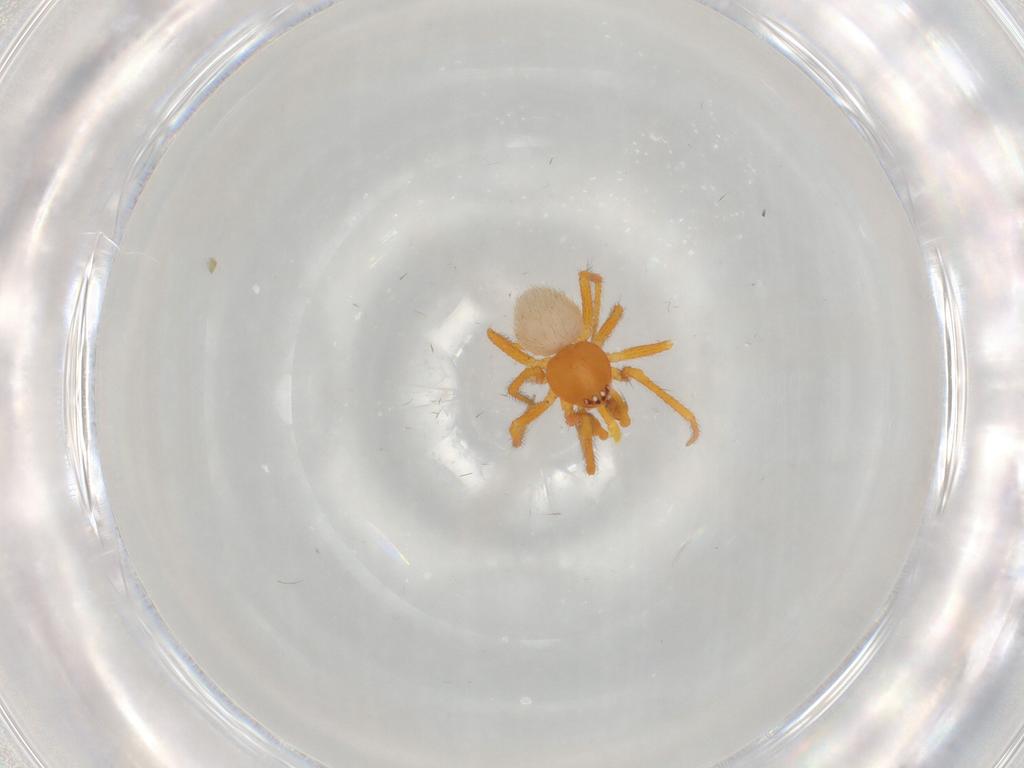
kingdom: Animalia
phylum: Arthropoda
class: Arachnida
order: Araneae
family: Theridiidae
